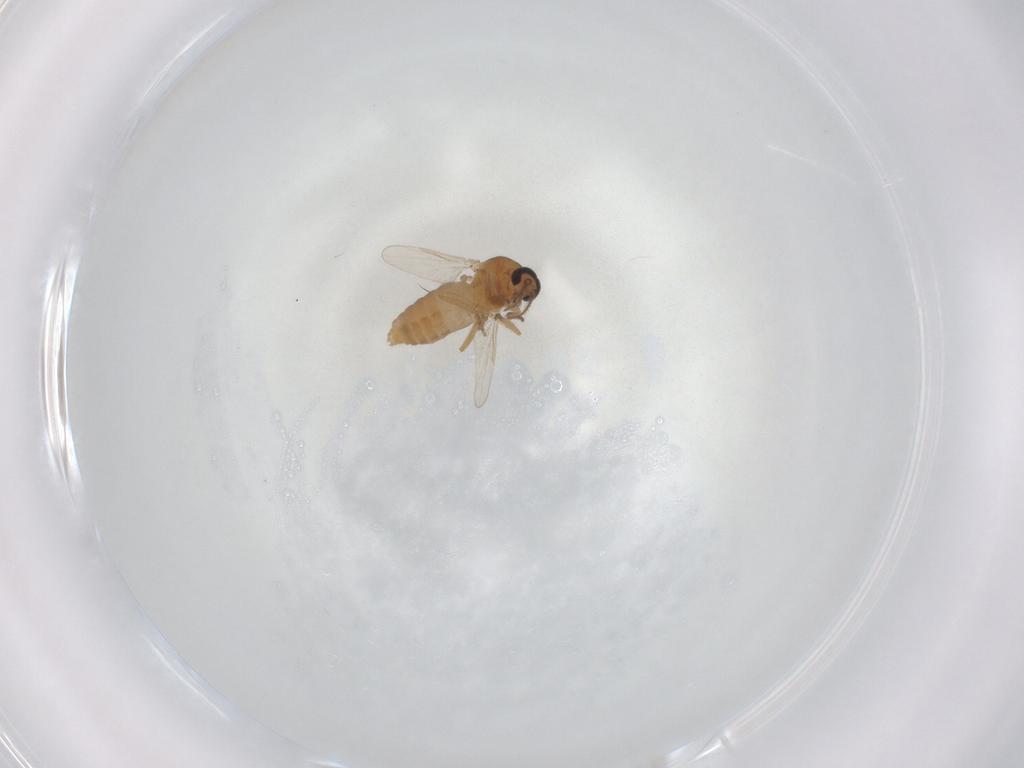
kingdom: Animalia
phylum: Arthropoda
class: Insecta
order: Diptera
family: Ceratopogonidae
